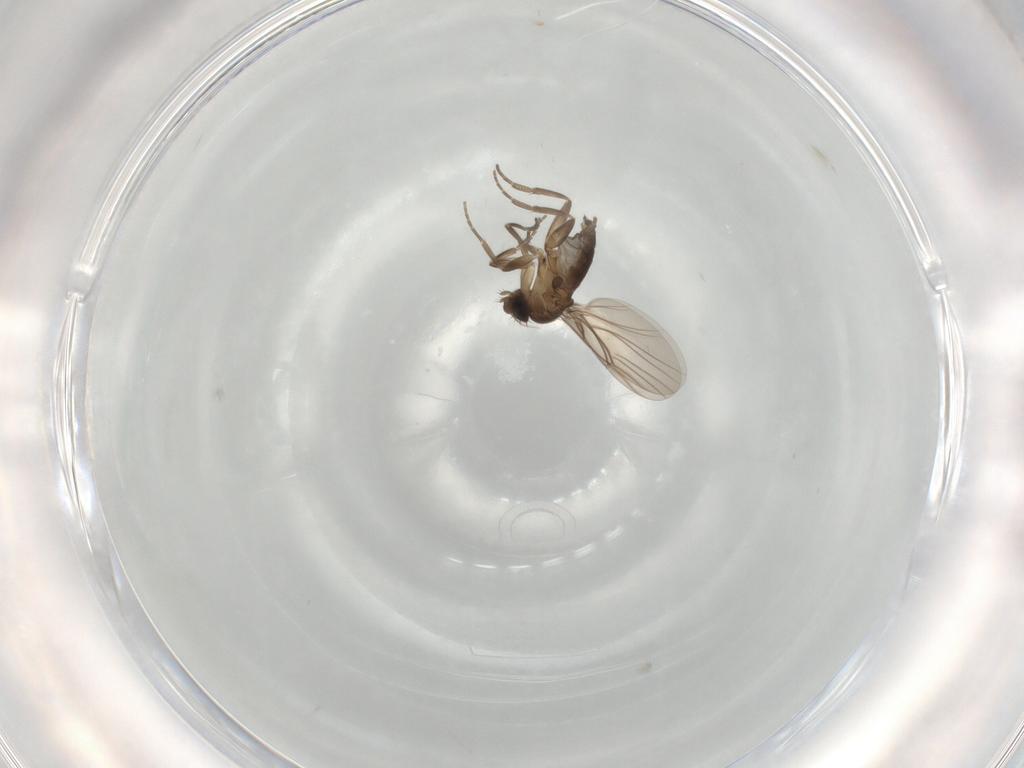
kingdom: Animalia
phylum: Arthropoda
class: Insecta
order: Diptera
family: Phoridae
